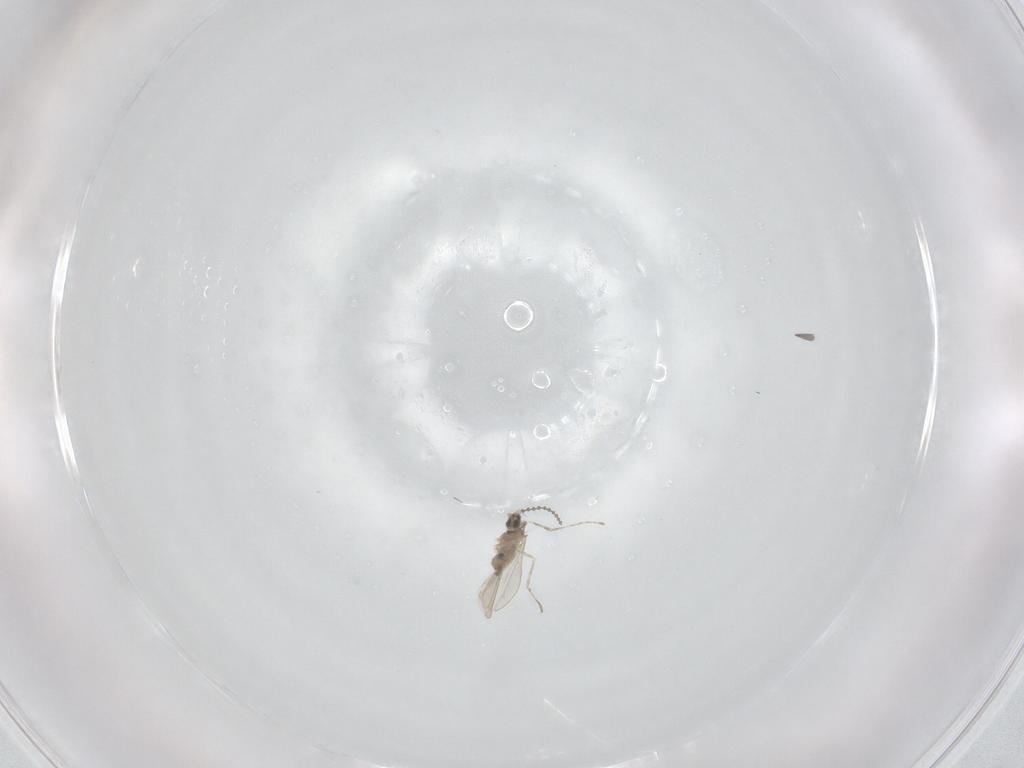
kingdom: Animalia
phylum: Arthropoda
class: Insecta
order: Diptera
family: Cecidomyiidae
